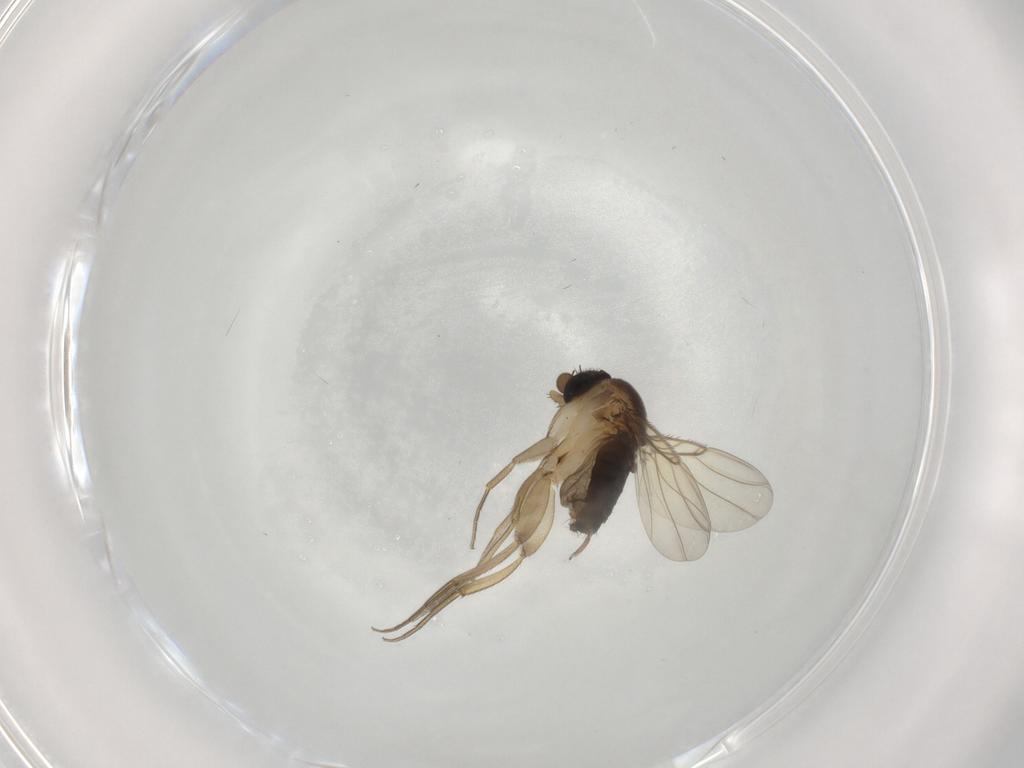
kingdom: Animalia
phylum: Arthropoda
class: Insecta
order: Diptera
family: Phoridae
